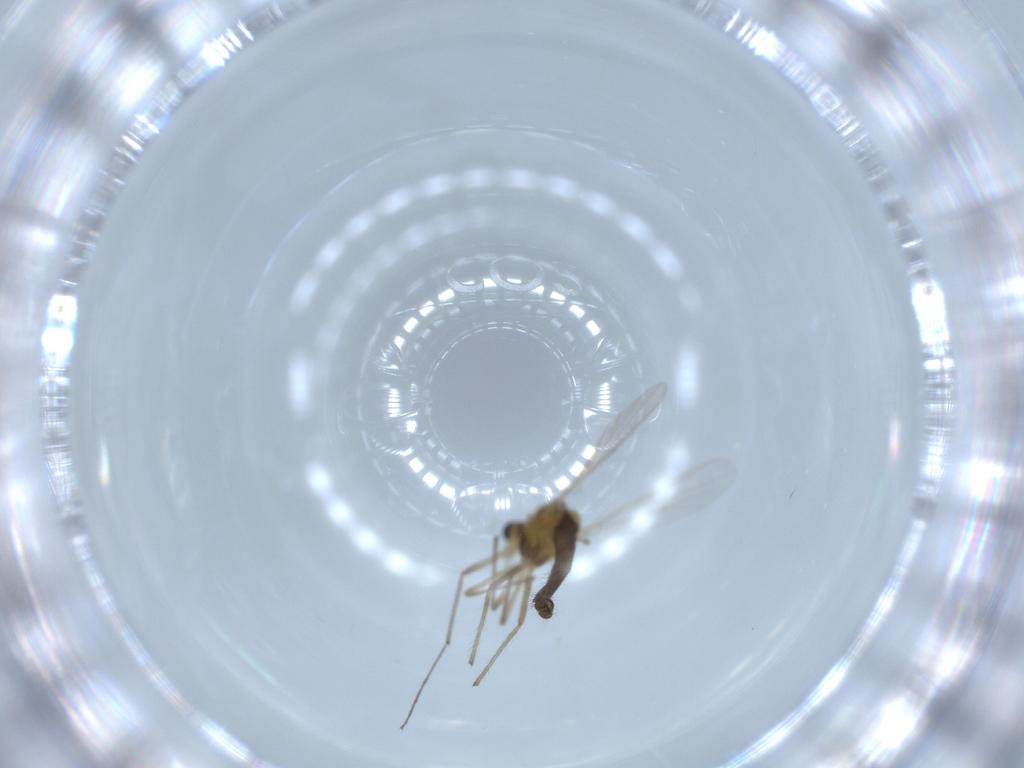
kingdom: Animalia
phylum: Arthropoda
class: Insecta
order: Diptera
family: Chironomidae
